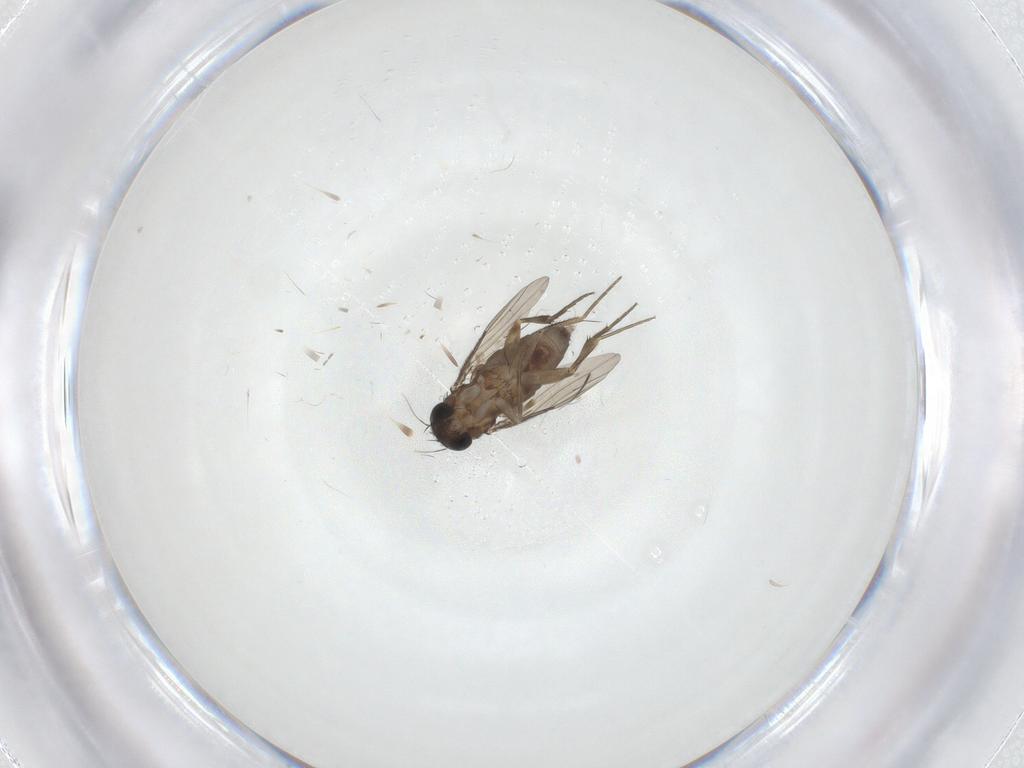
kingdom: Animalia
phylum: Arthropoda
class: Insecta
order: Diptera
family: Phoridae
